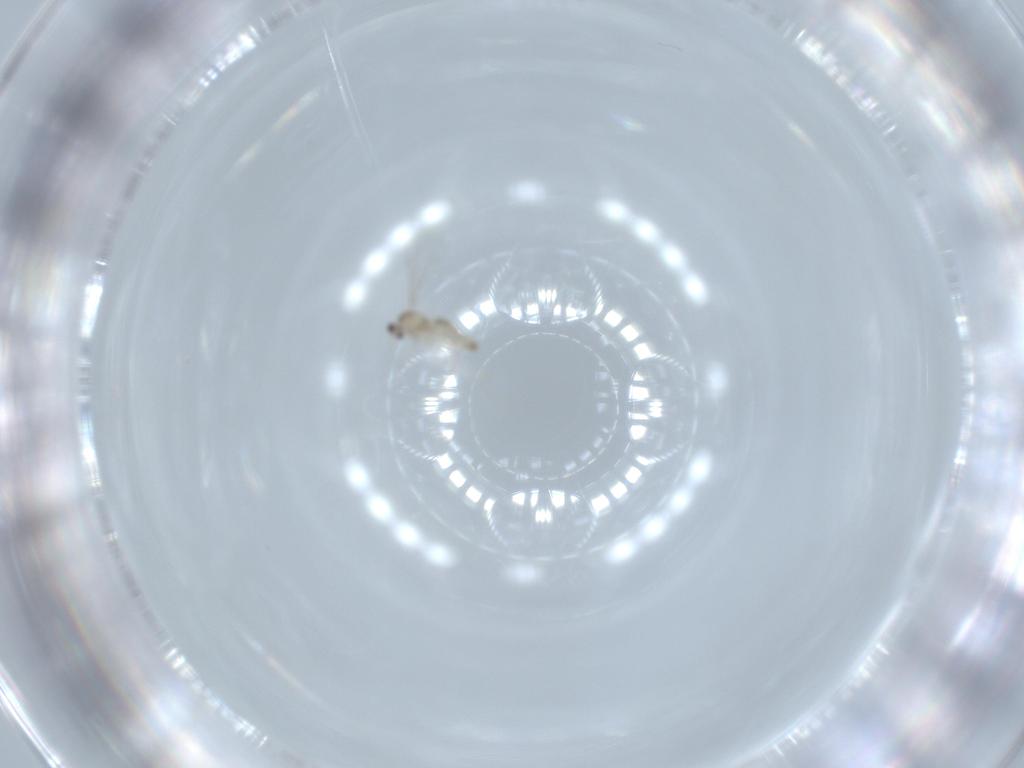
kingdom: Animalia
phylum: Arthropoda
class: Insecta
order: Diptera
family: Cecidomyiidae
